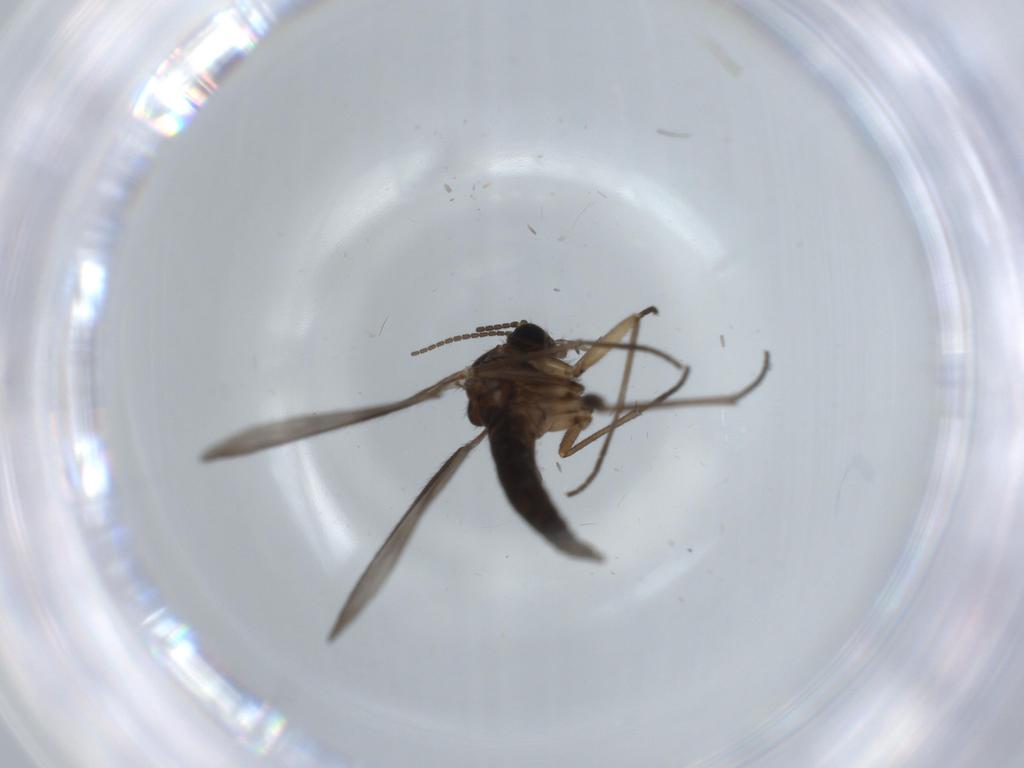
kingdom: Animalia
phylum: Arthropoda
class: Insecta
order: Diptera
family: Sciaridae
